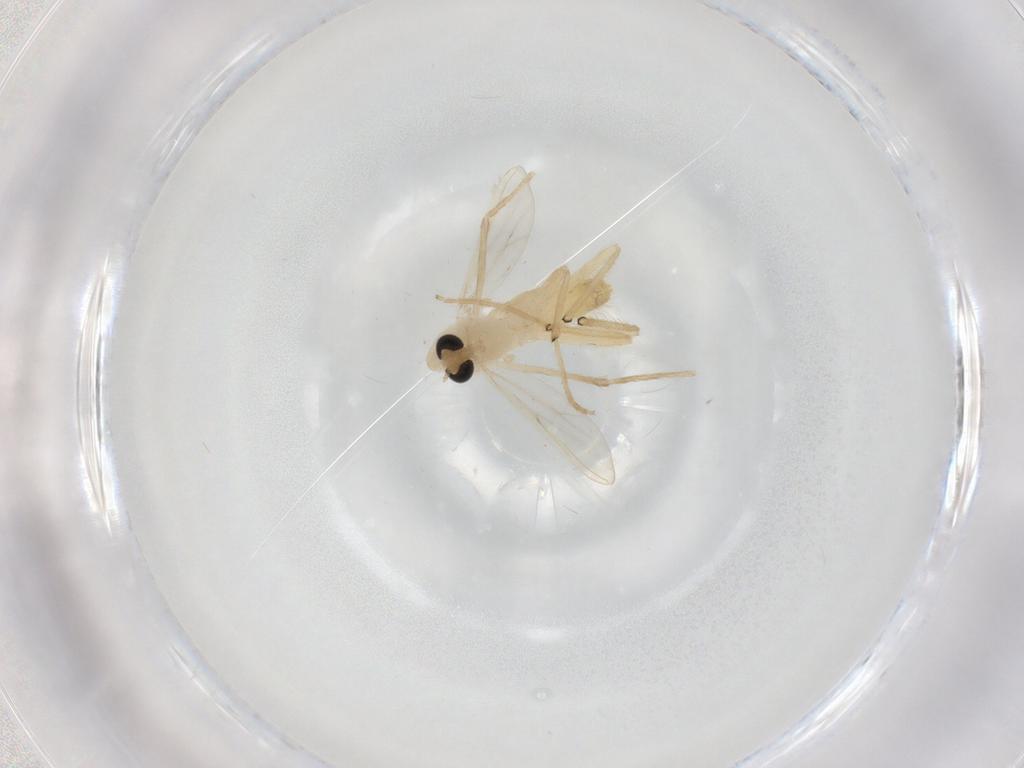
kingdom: Animalia
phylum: Arthropoda
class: Insecta
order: Diptera
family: Chironomidae
